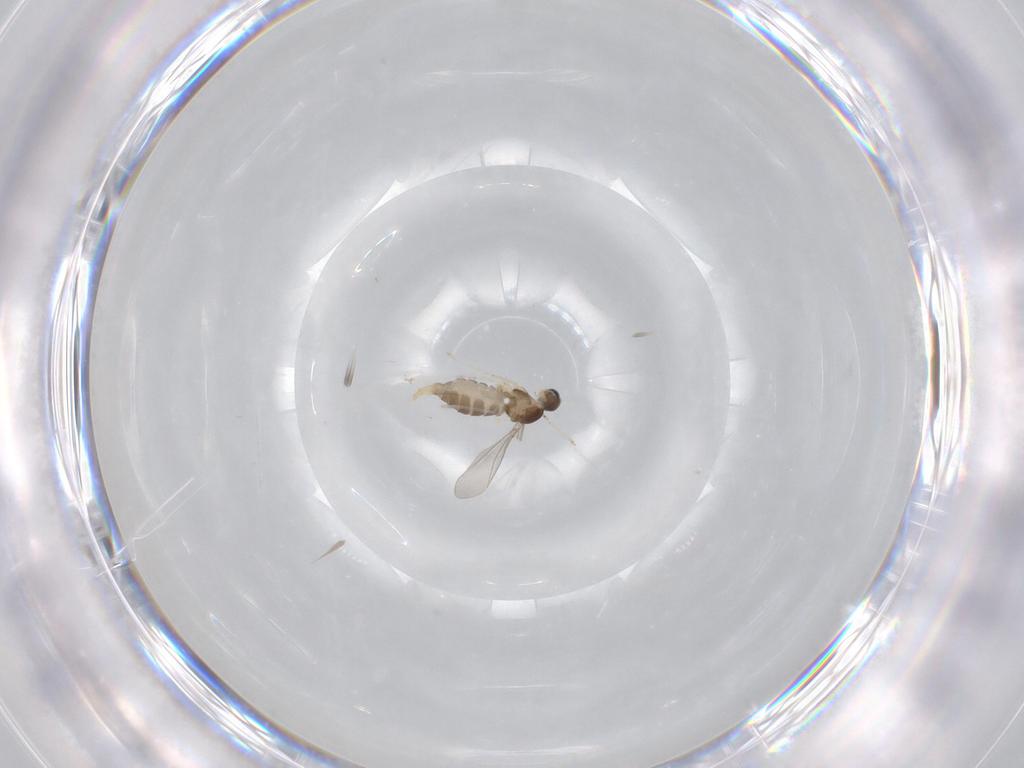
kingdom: Animalia
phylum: Arthropoda
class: Insecta
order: Diptera
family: Cecidomyiidae
